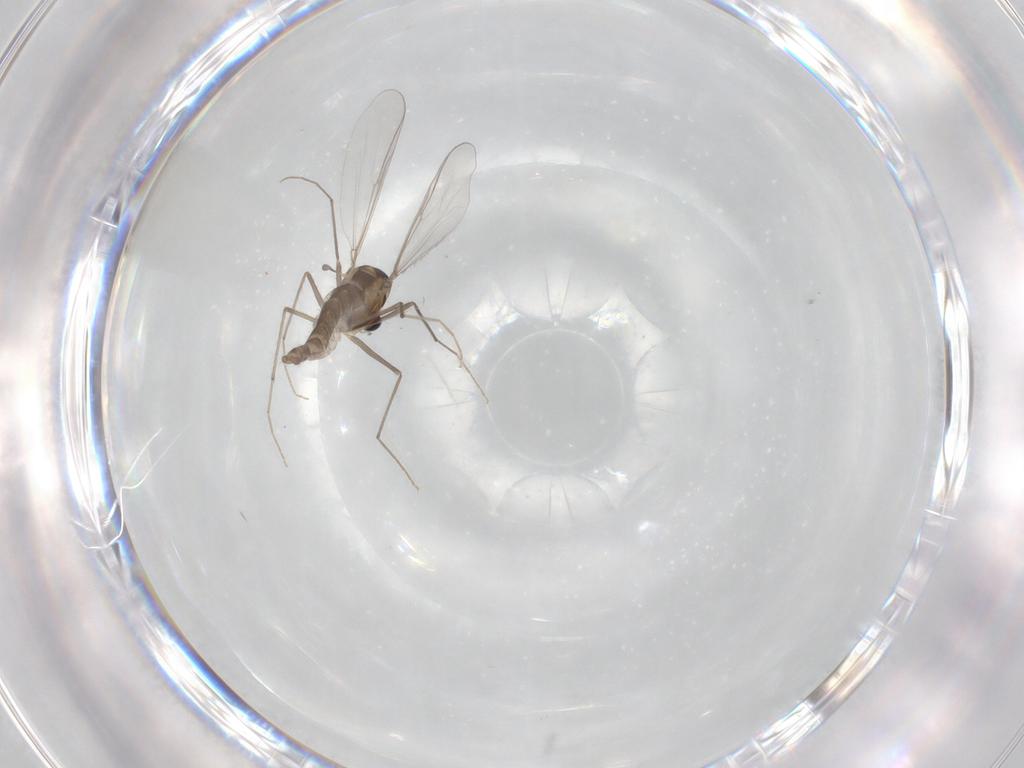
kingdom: Animalia
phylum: Arthropoda
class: Insecta
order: Diptera
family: Chironomidae
